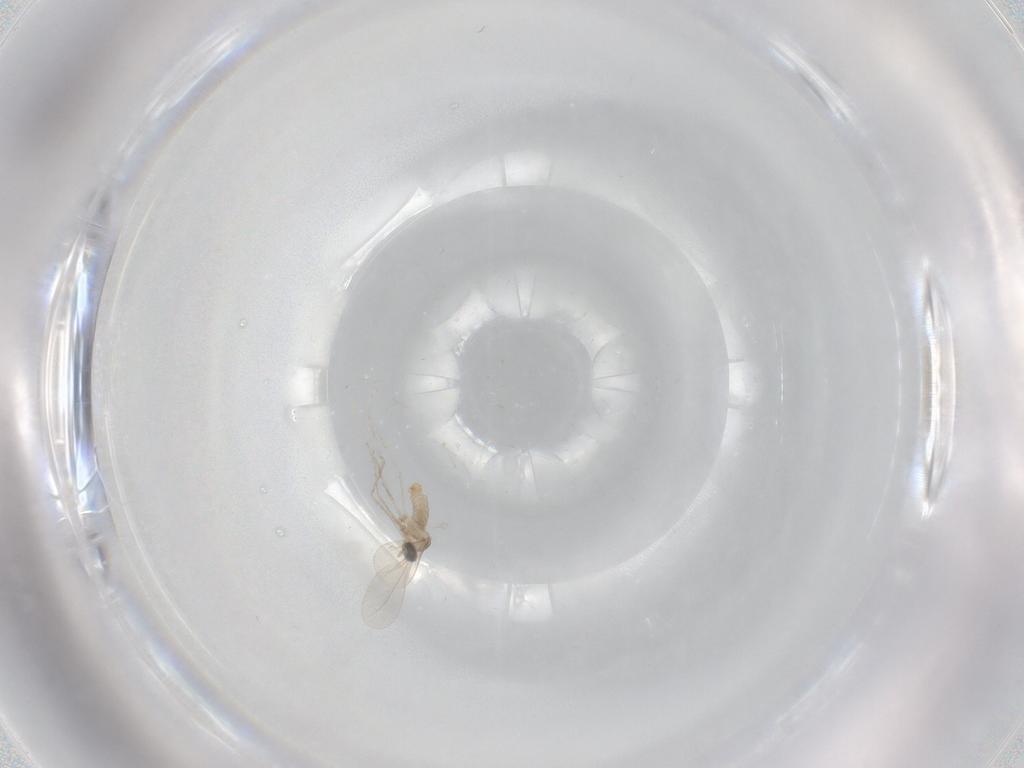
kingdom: Animalia
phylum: Arthropoda
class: Insecta
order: Diptera
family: Cecidomyiidae
